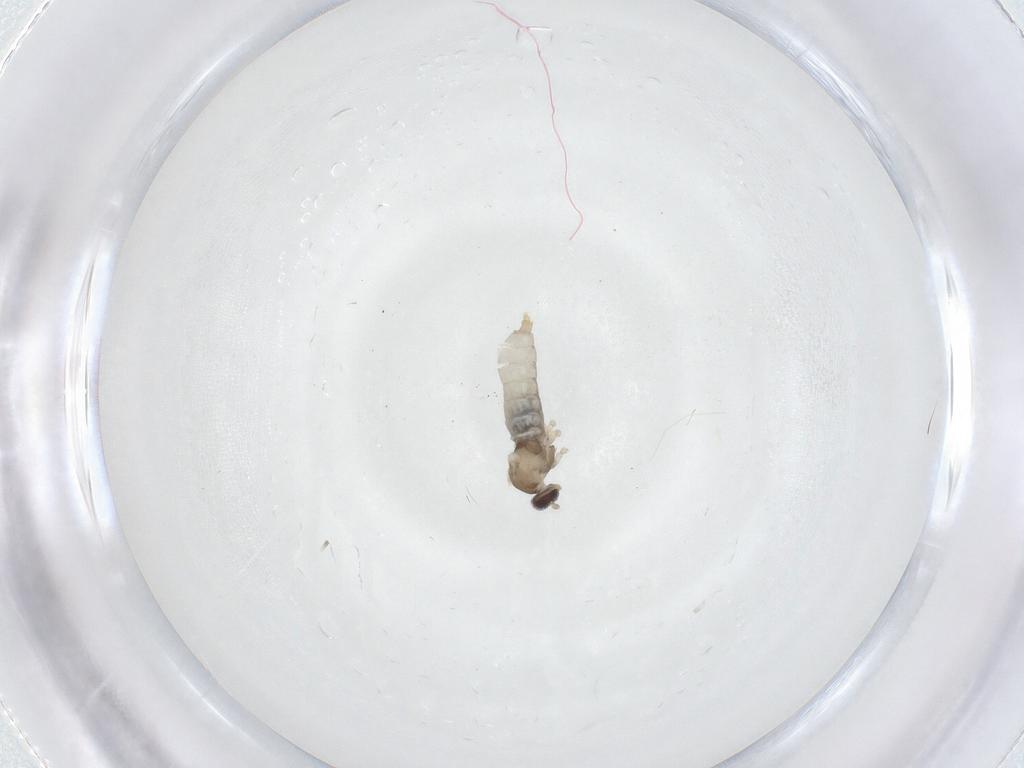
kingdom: Animalia
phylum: Arthropoda
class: Insecta
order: Diptera
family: Cecidomyiidae
